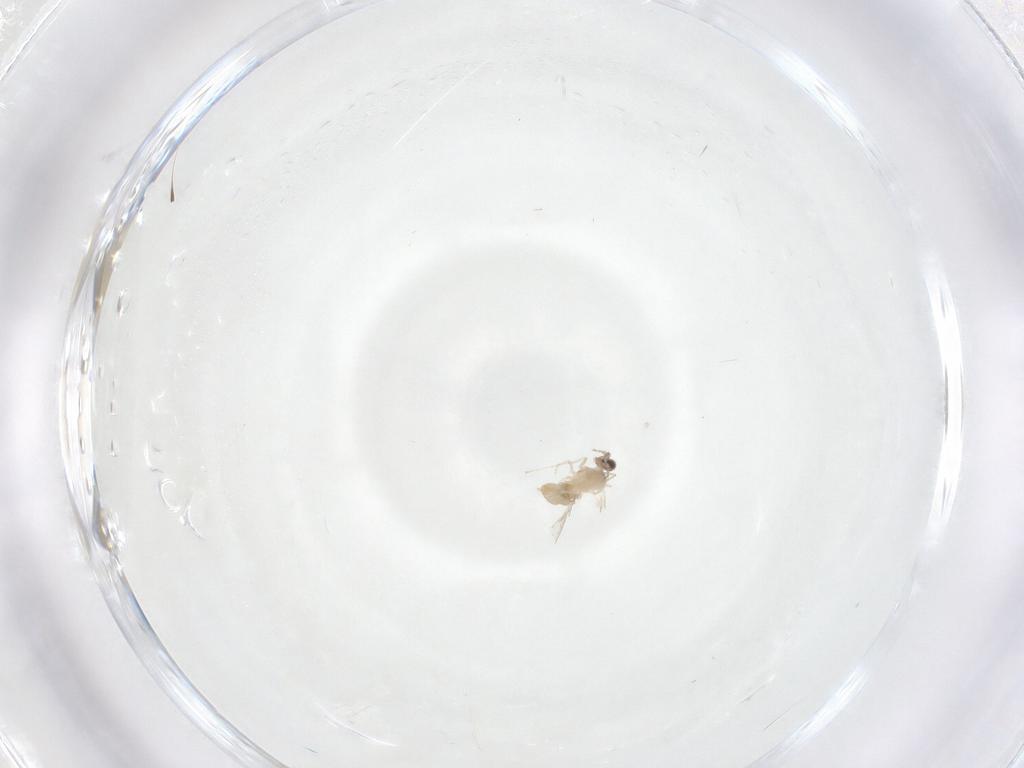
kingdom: Animalia
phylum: Arthropoda
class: Insecta
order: Diptera
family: Cecidomyiidae
